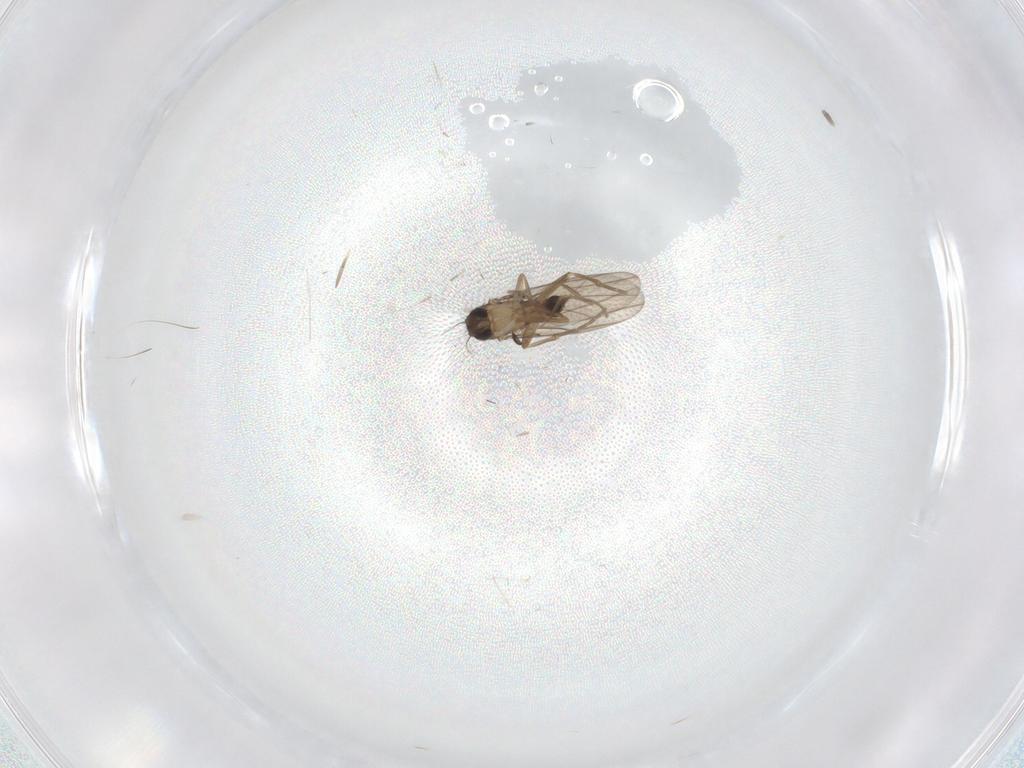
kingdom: Animalia
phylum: Arthropoda
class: Insecta
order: Diptera
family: Phoridae
